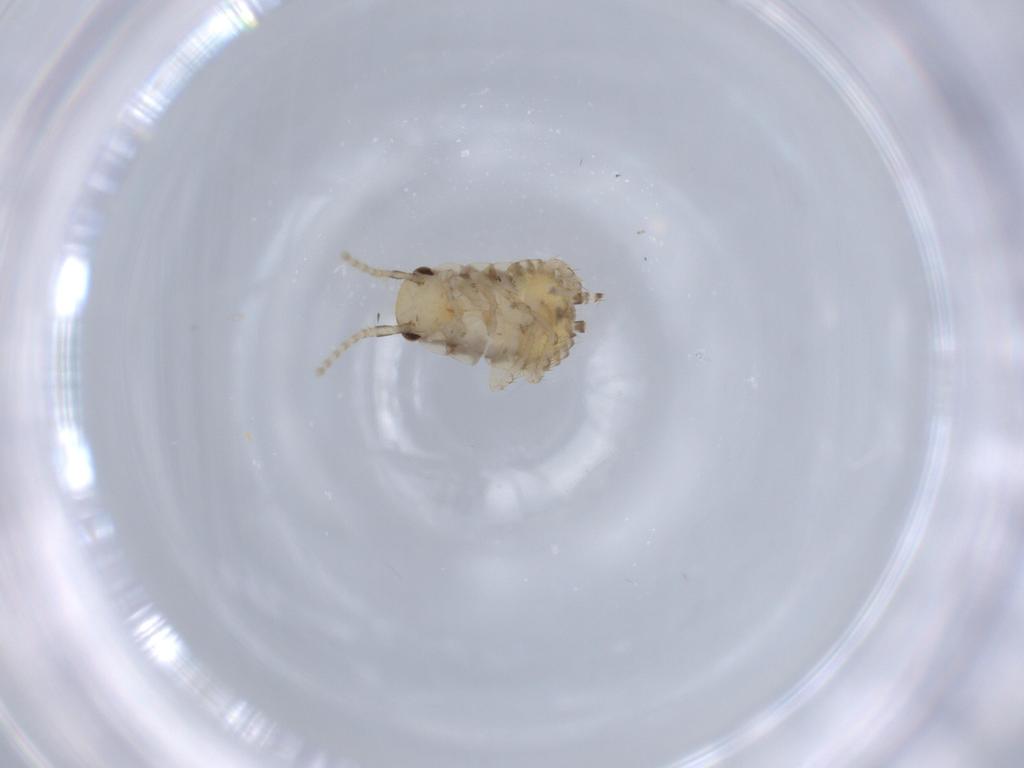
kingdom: Animalia
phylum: Arthropoda
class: Insecta
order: Blattodea
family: Ectobiidae
